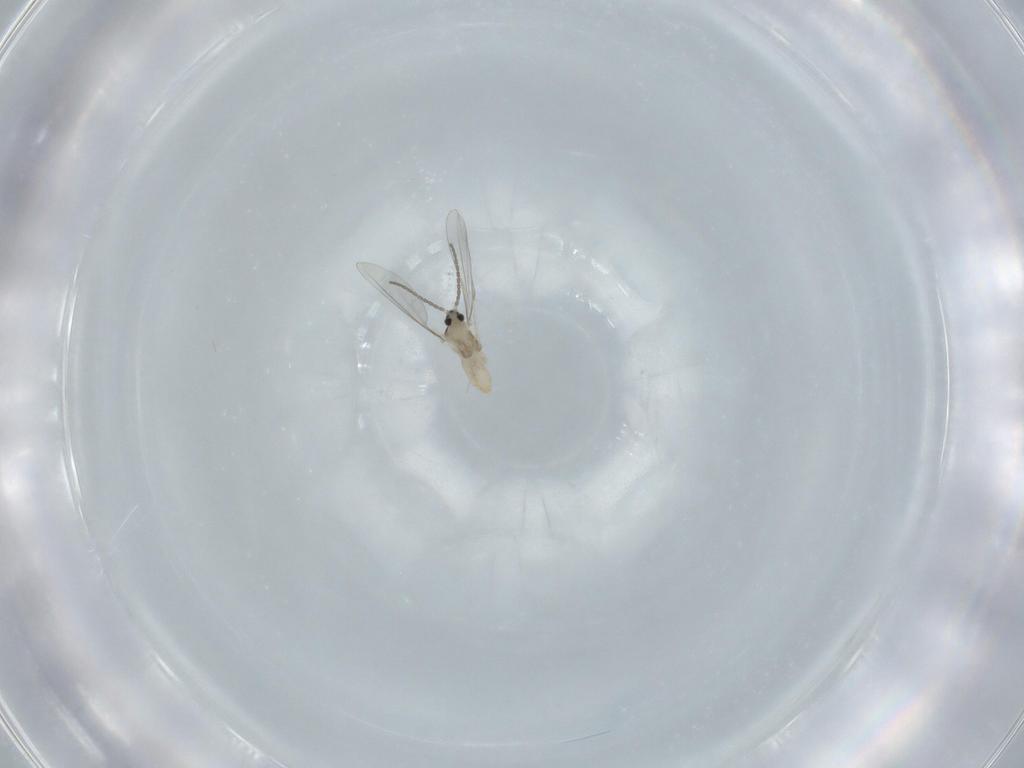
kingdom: Animalia
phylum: Arthropoda
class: Insecta
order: Diptera
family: Cecidomyiidae
